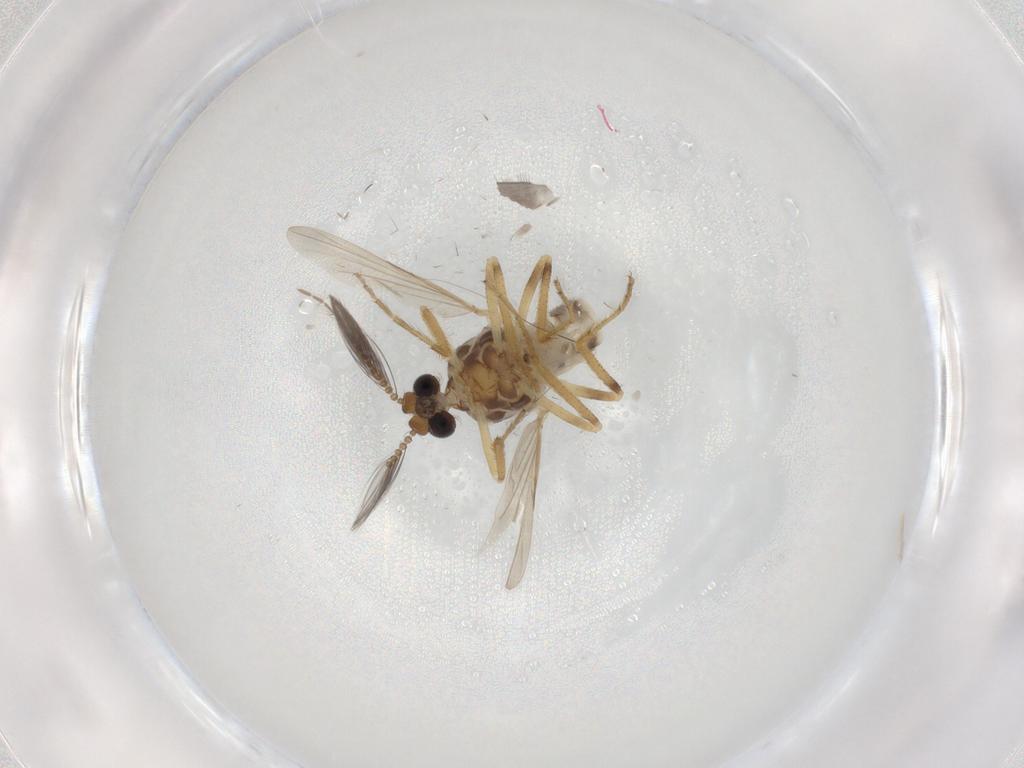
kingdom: Animalia
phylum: Arthropoda
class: Insecta
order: Diptera
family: Ceratopogonidae
